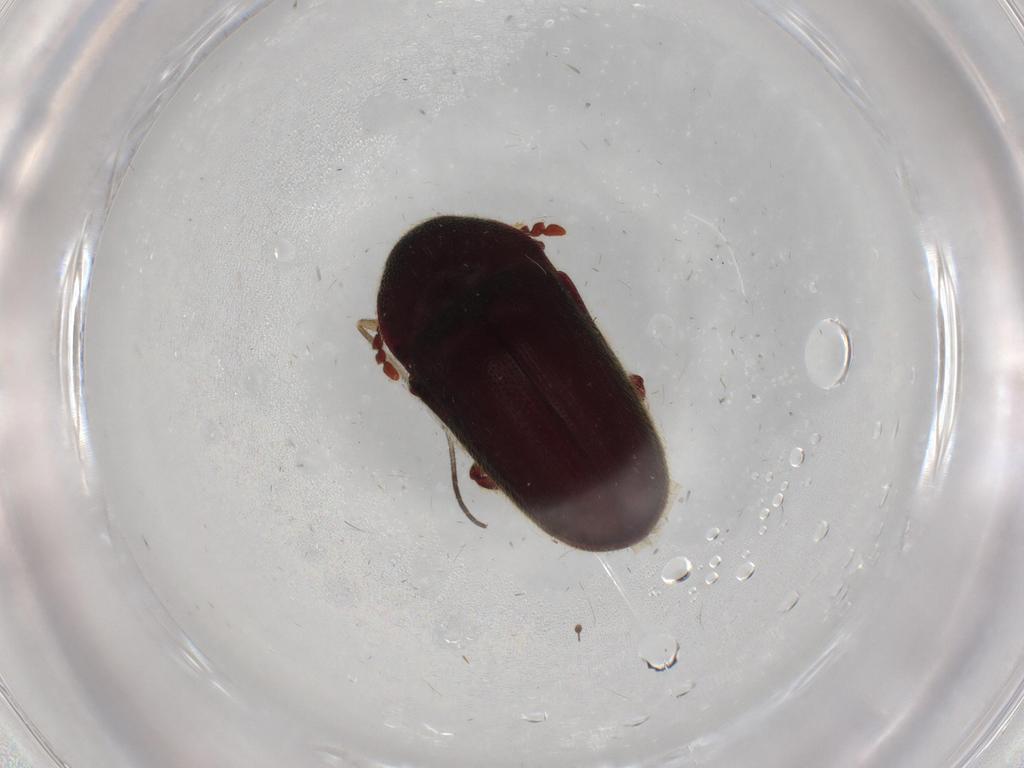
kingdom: Animalia
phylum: Arthropoda
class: Insecta
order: Coleoptera
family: Throscidae
